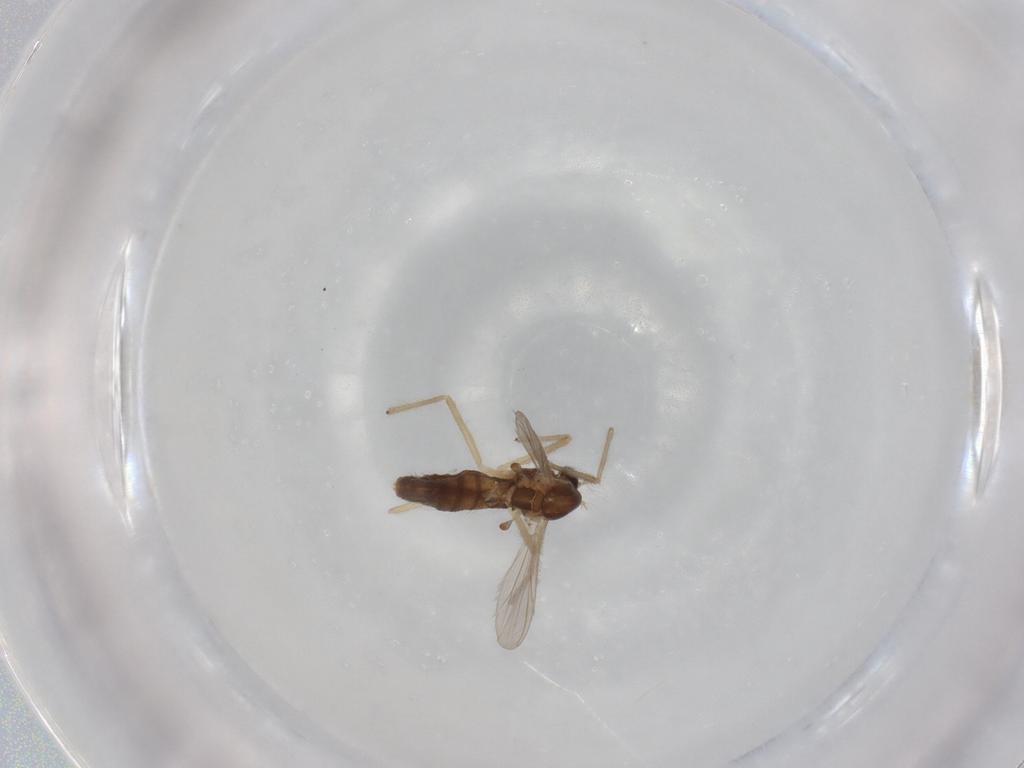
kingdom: Animalia
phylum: Arthropoda
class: Insecta
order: Diptera
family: Chironomidae
